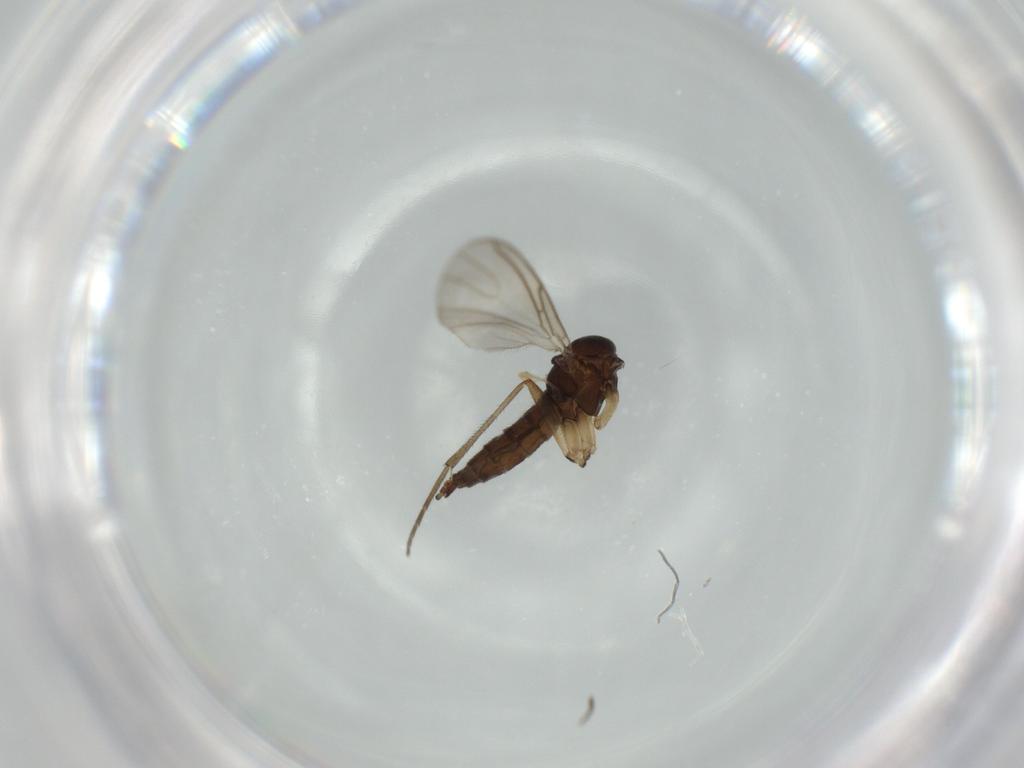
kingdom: Animalia
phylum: Arthropoda
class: Insecta
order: Diptera
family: Sciaridae
